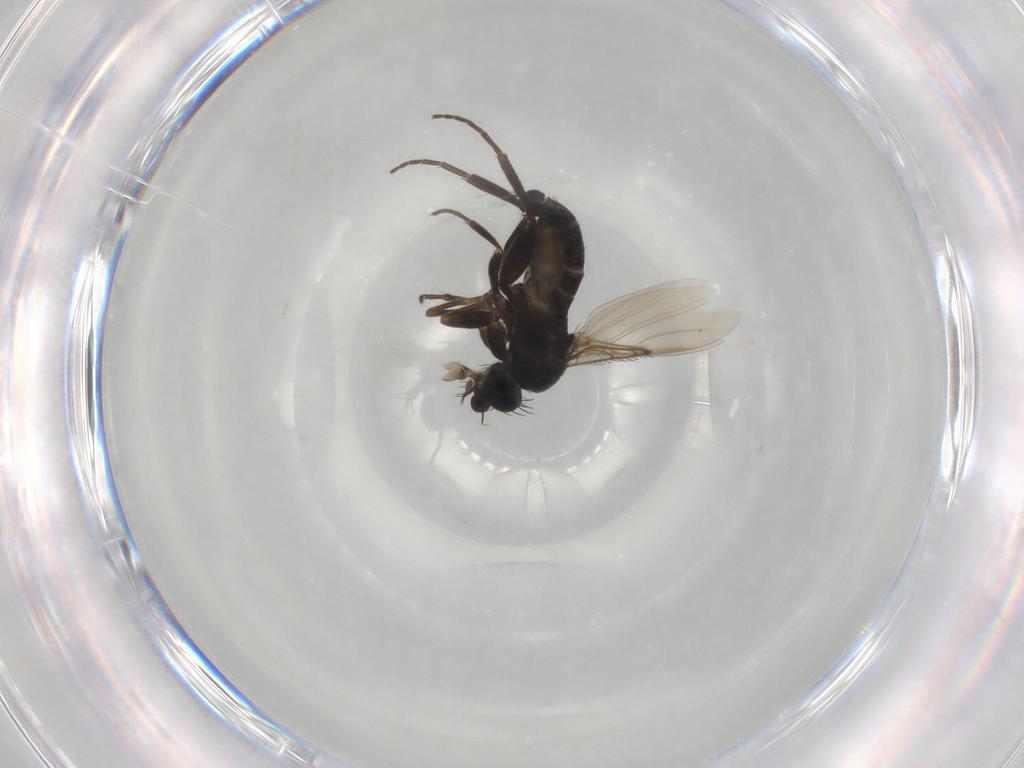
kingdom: Animalia
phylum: Arthropoda
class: Insecta
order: Diptera
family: Phoridae
